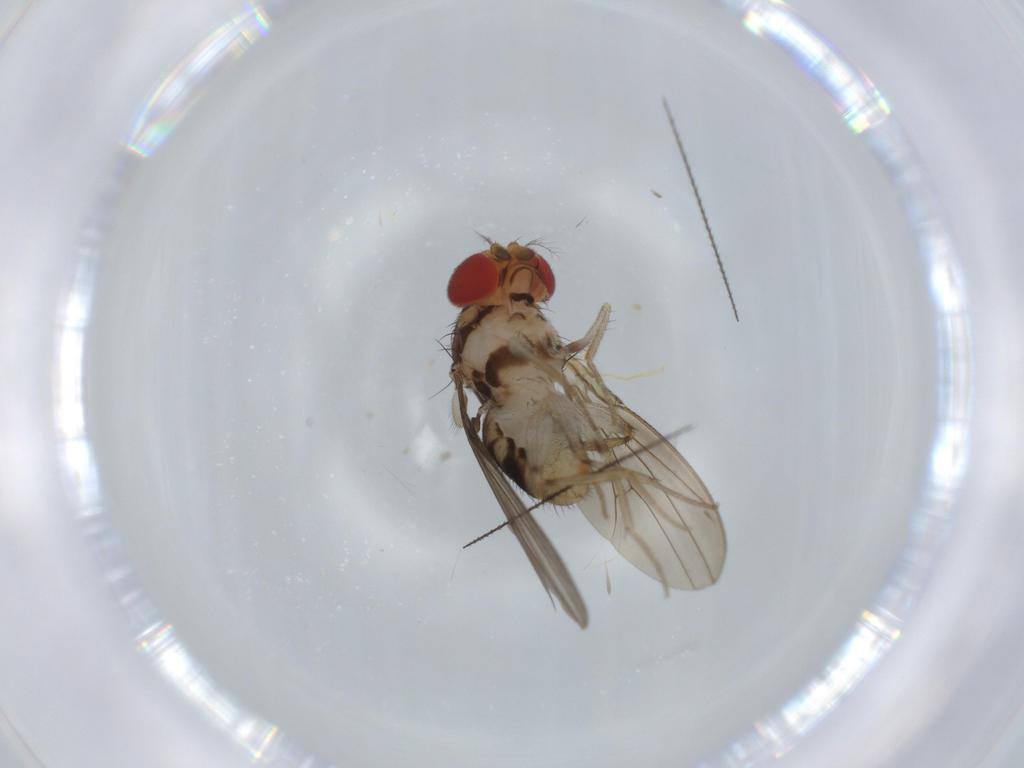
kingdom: Animalia
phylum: Arthropoda
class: Insecta
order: Diptera
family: Drosophilidae
